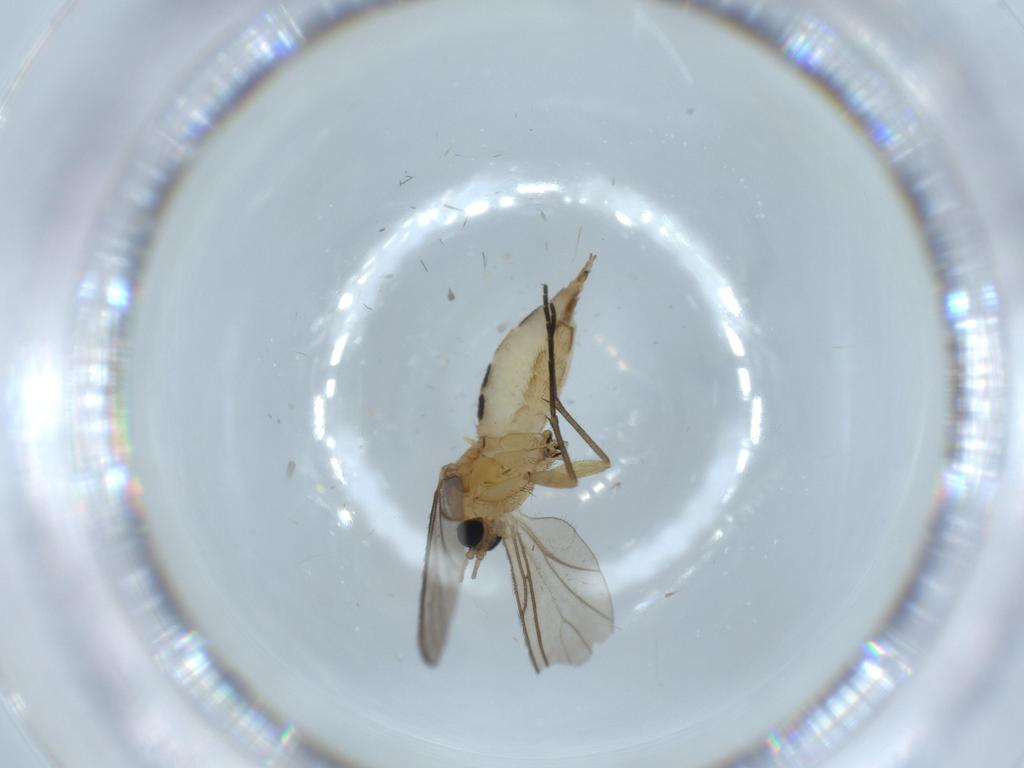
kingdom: Animalia
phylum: Arthropoda
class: Insecta
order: Diptera
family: Sciaridae
